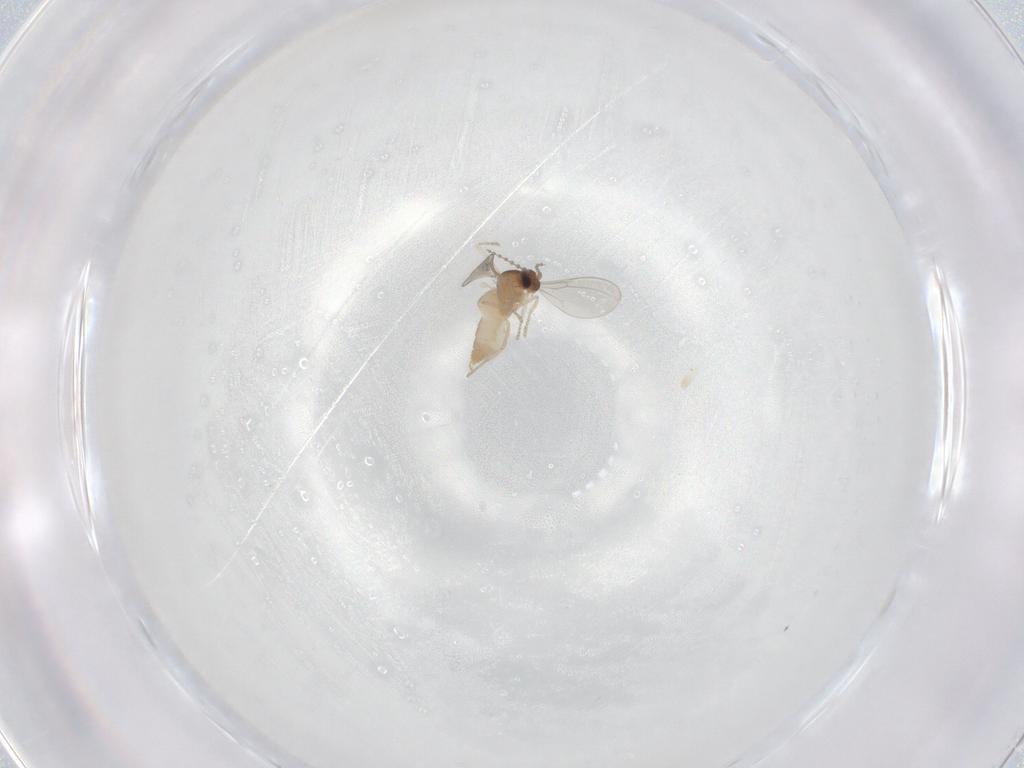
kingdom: Animalia
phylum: Arthropoda
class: Insecta
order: Diptera
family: Cecidomyiidae
